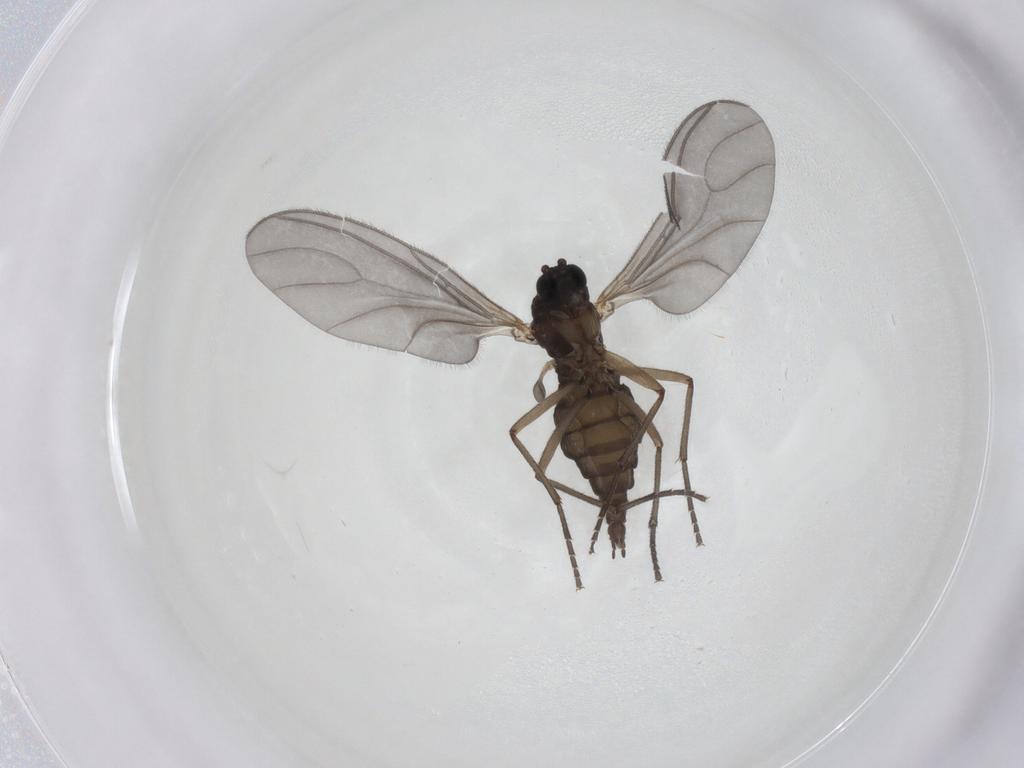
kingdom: Animalia
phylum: Arthropoda
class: Insecta
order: Diptera
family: Sciaridae
